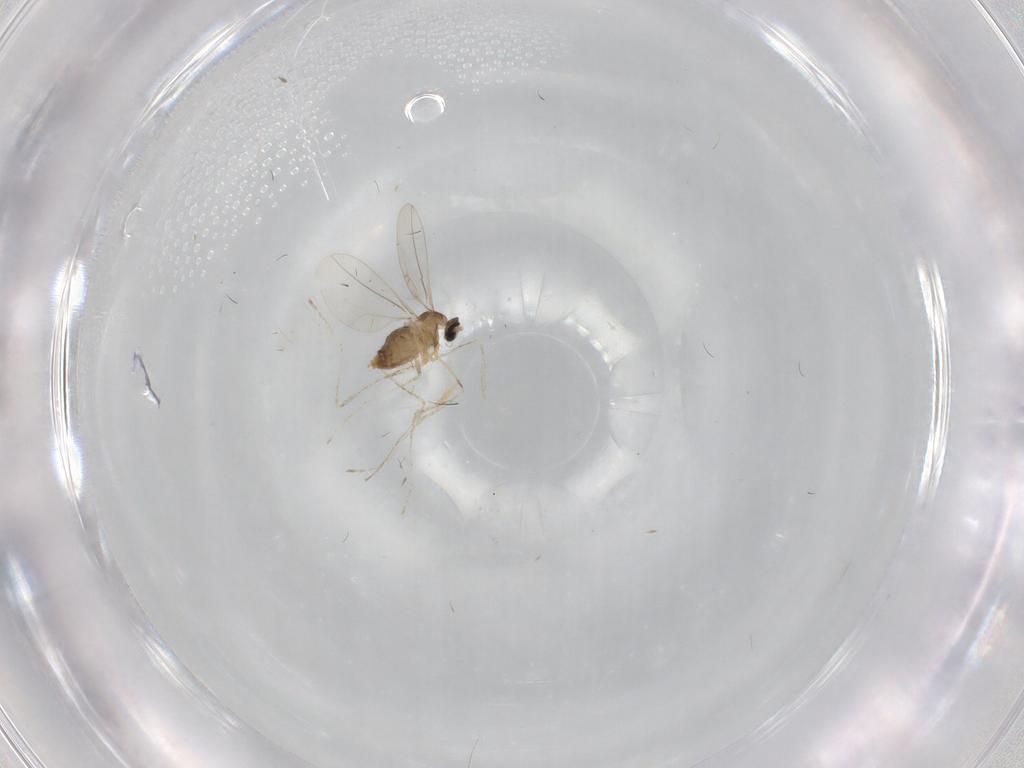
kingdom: Animalia
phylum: Arthropoda
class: Insecta
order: Diptera
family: Cecidomyiidae
